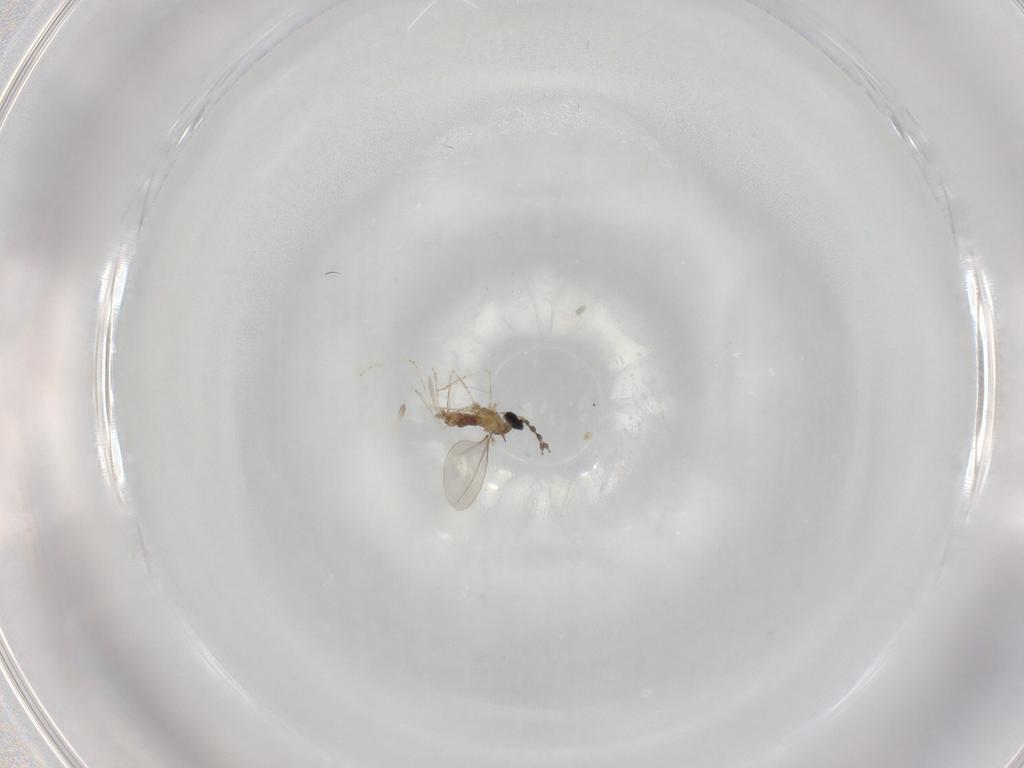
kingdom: Animalia
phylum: Arthropoda
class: Insecta
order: Diptera
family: Cecidomyiidae
